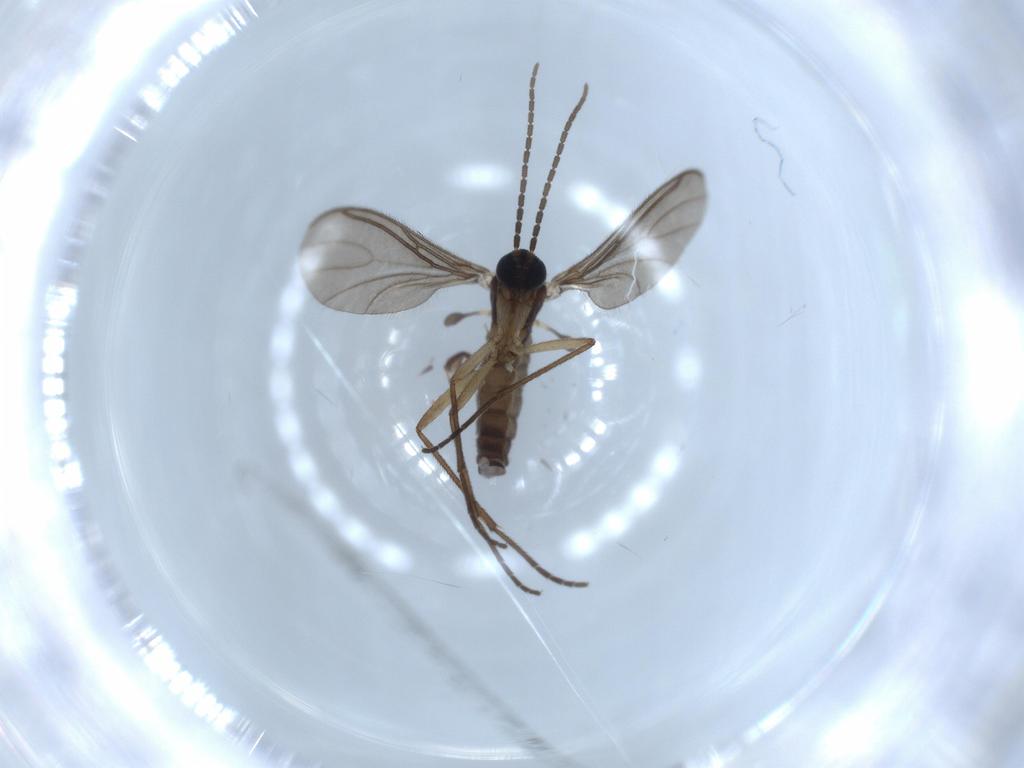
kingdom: Animalia
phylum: Arthropoda
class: Insecta
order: Diptera
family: Sciaridae
